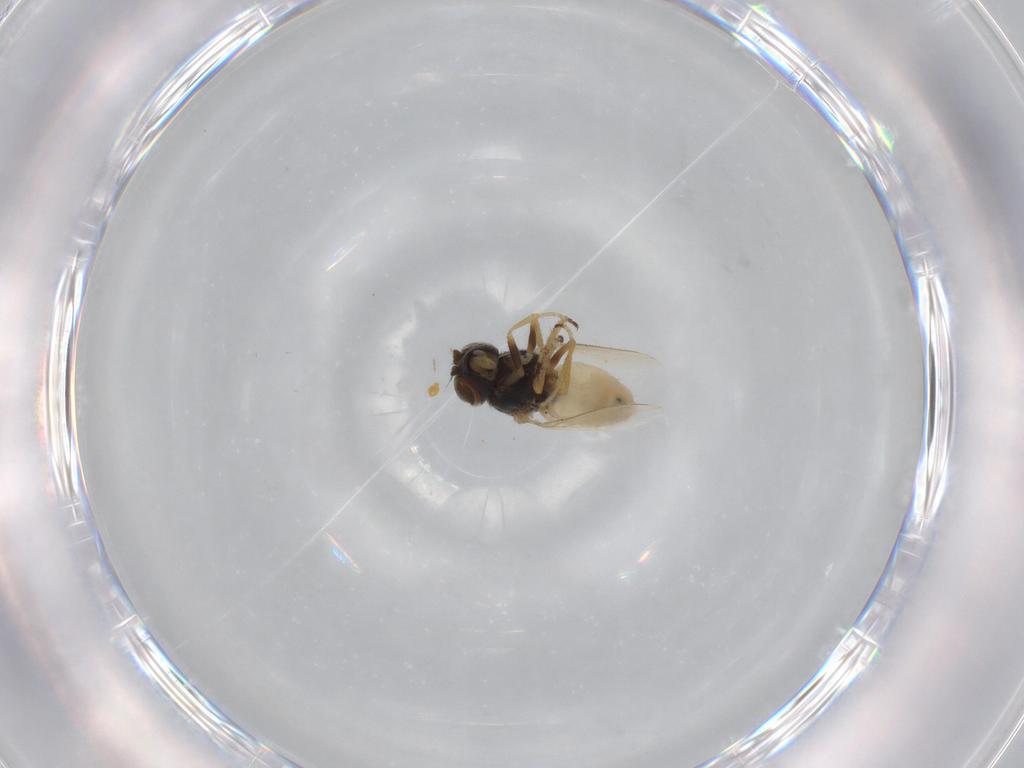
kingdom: Animalia
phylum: Arthropoda
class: Insecta
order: Diptera
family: Ephydridae
